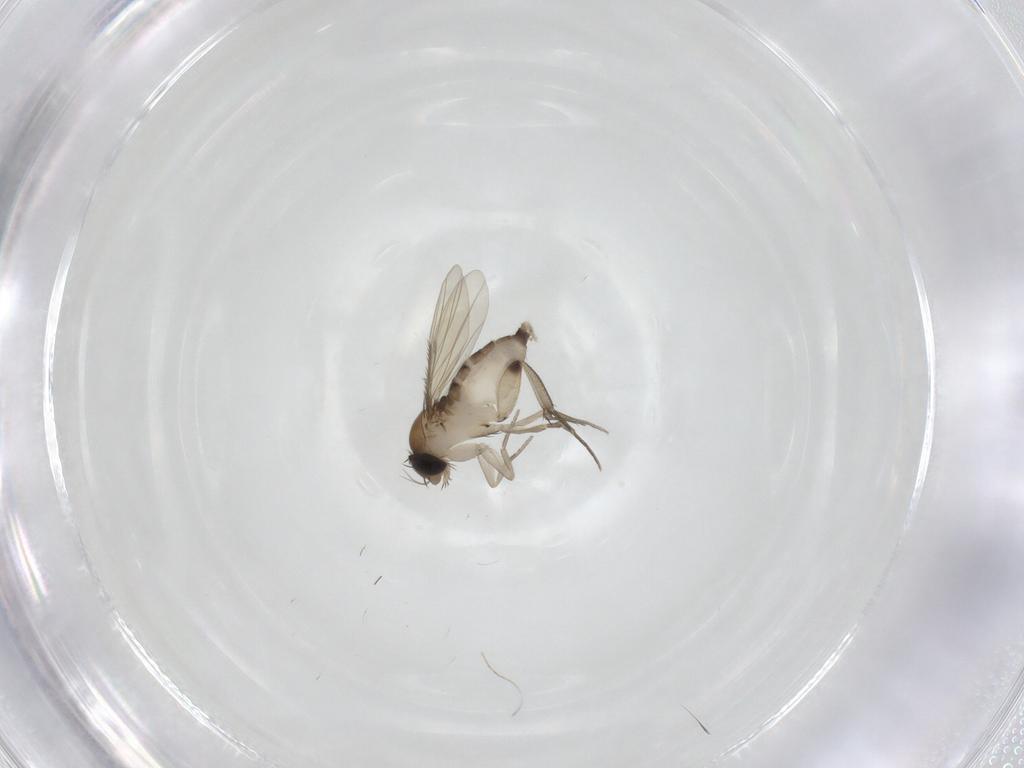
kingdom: Animalia
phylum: Arthropoda
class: Insecta
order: Diptera
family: Phoridae
